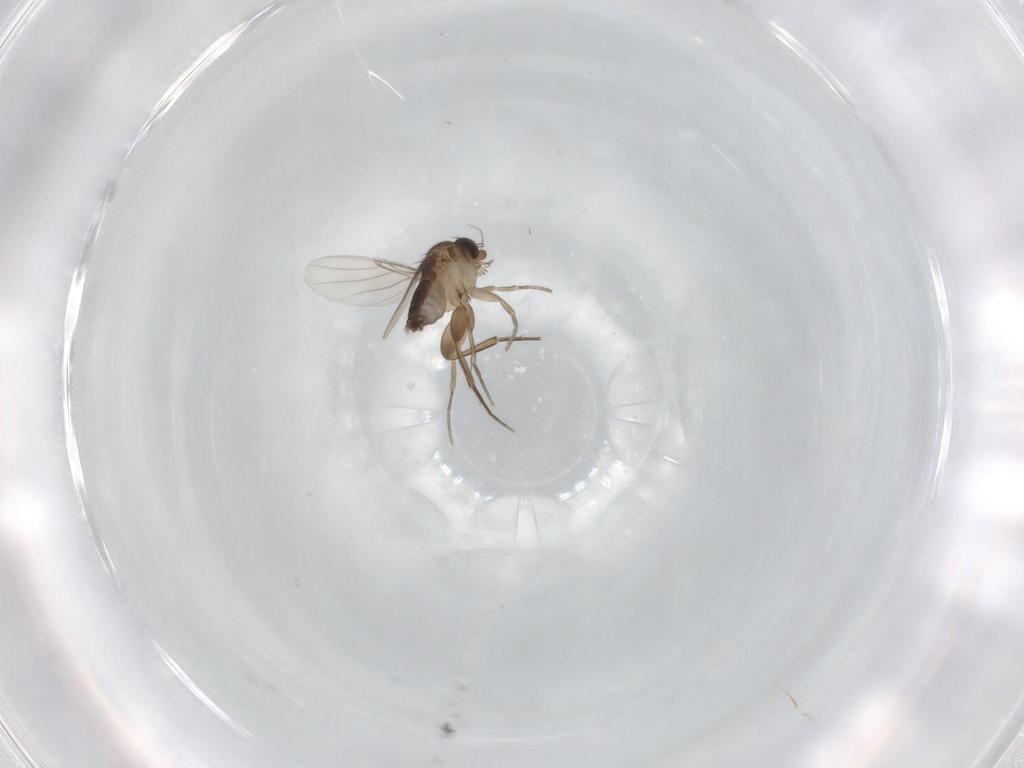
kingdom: Animalia
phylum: Arthropoda
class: Insecta
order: Diptera
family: Phoridae
